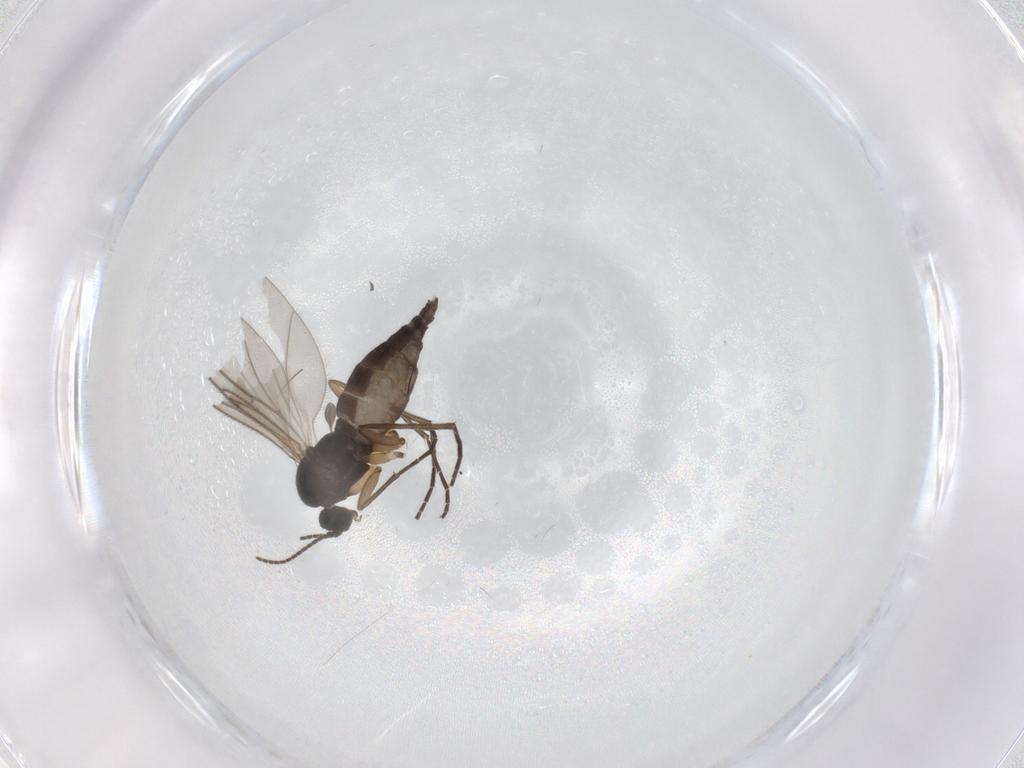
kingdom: Animalia
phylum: Arthropoda
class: Insecta
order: Diptera
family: Sciaridae
